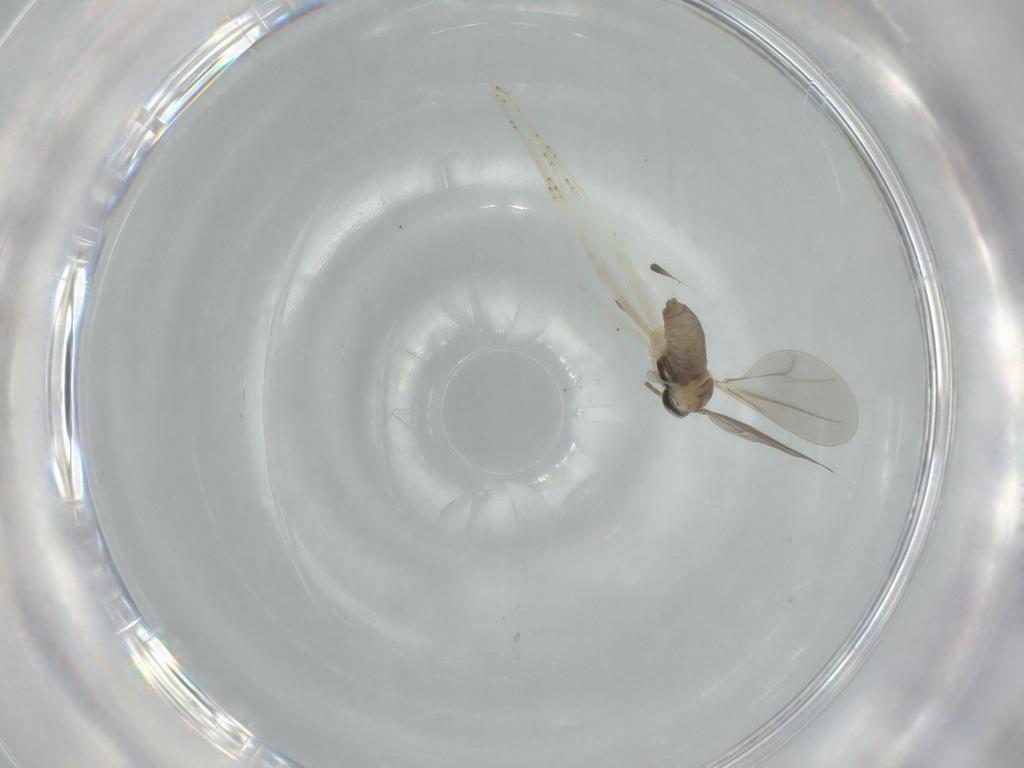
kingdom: Animalia
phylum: Arthropoda
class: Insecta
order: Diptera
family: Cecidomyiidae
